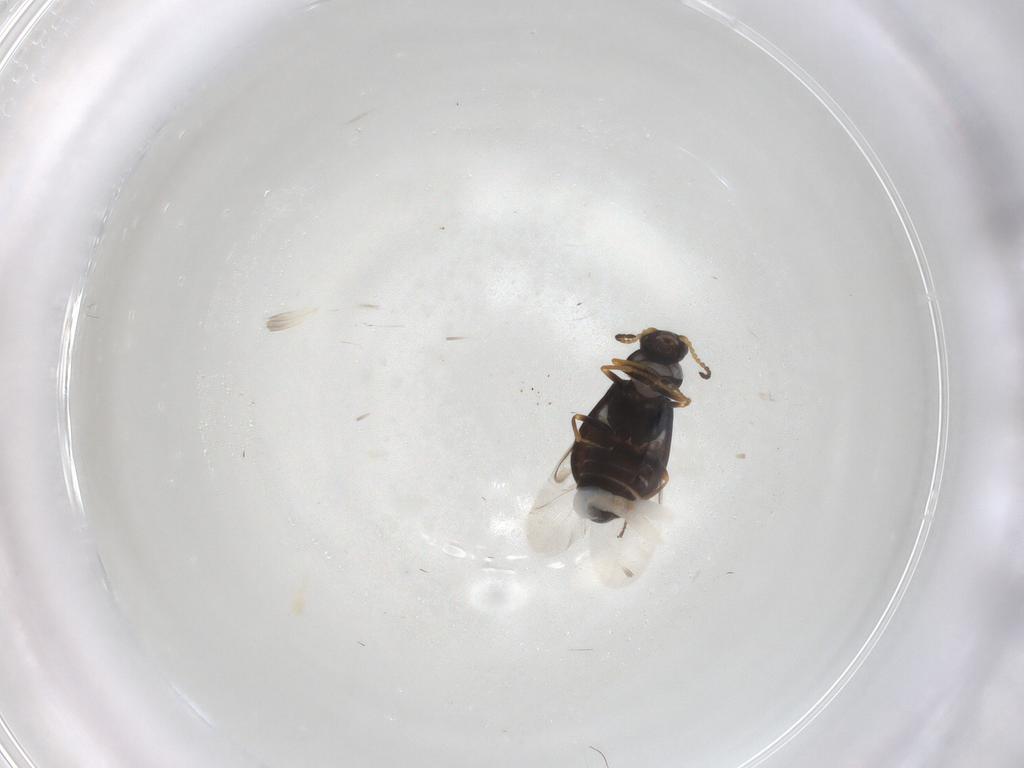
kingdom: Animalia
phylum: Arthropoda
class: Insecta
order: Coleoptera
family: Melyridae
